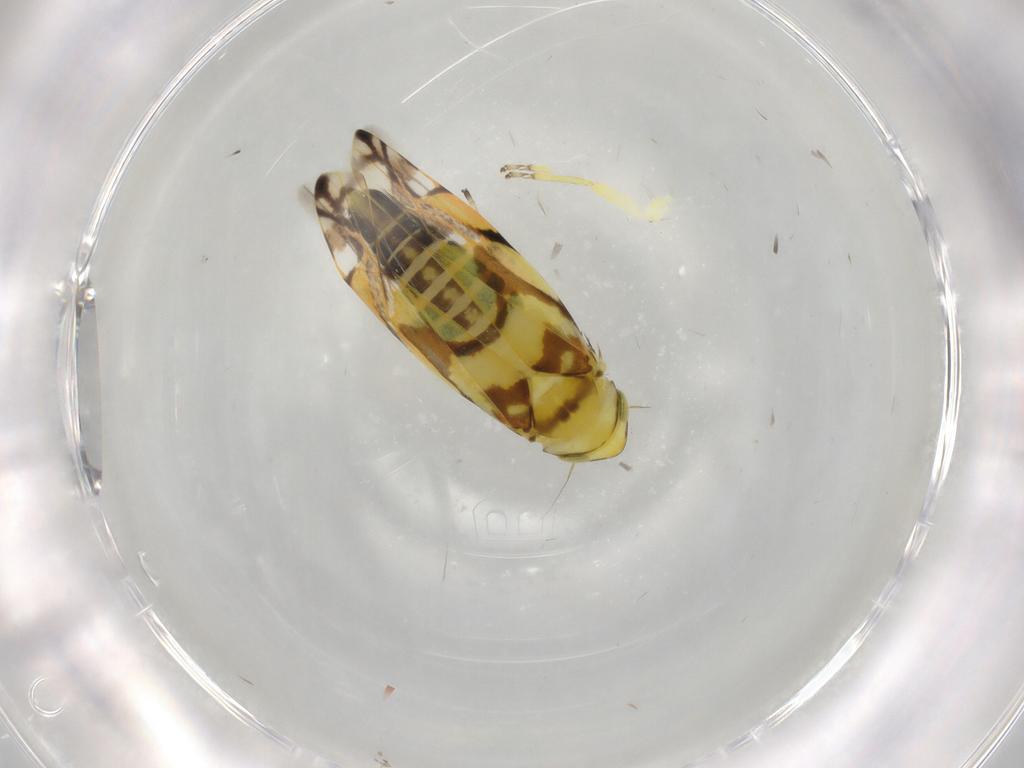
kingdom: Animalia
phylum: Arthropoda
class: Insecta
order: Hemiptera
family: Cicadellidae
